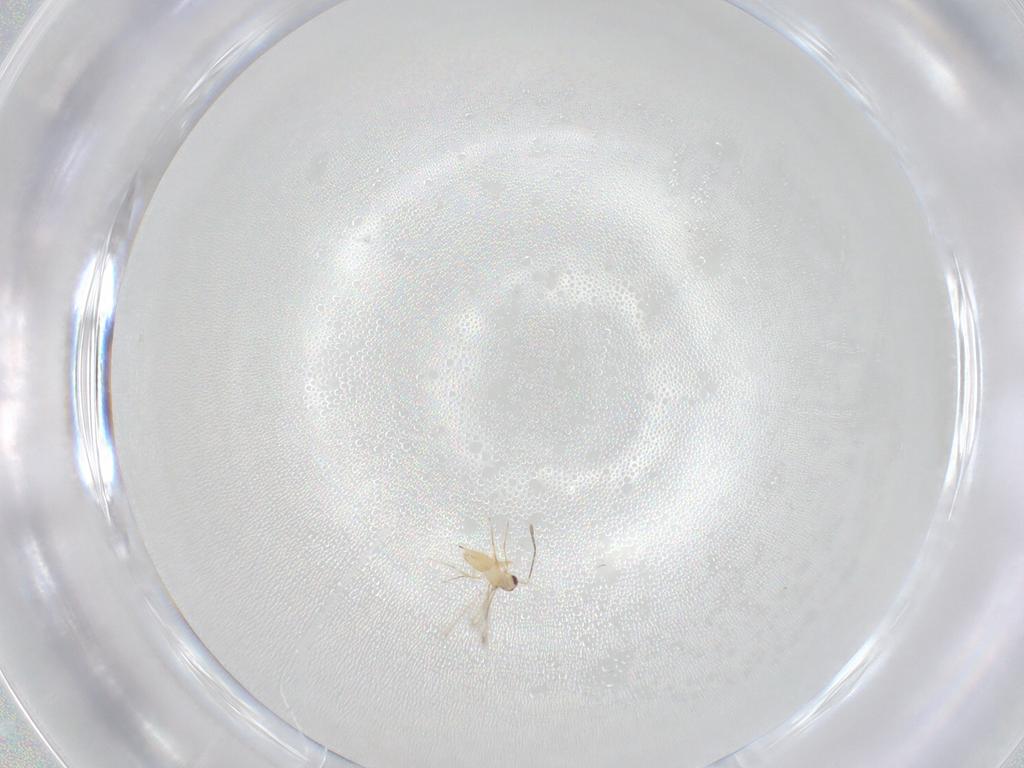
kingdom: Animalia
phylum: Arthropoda
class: Insecta
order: Hymenoptera
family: Mymaridae
